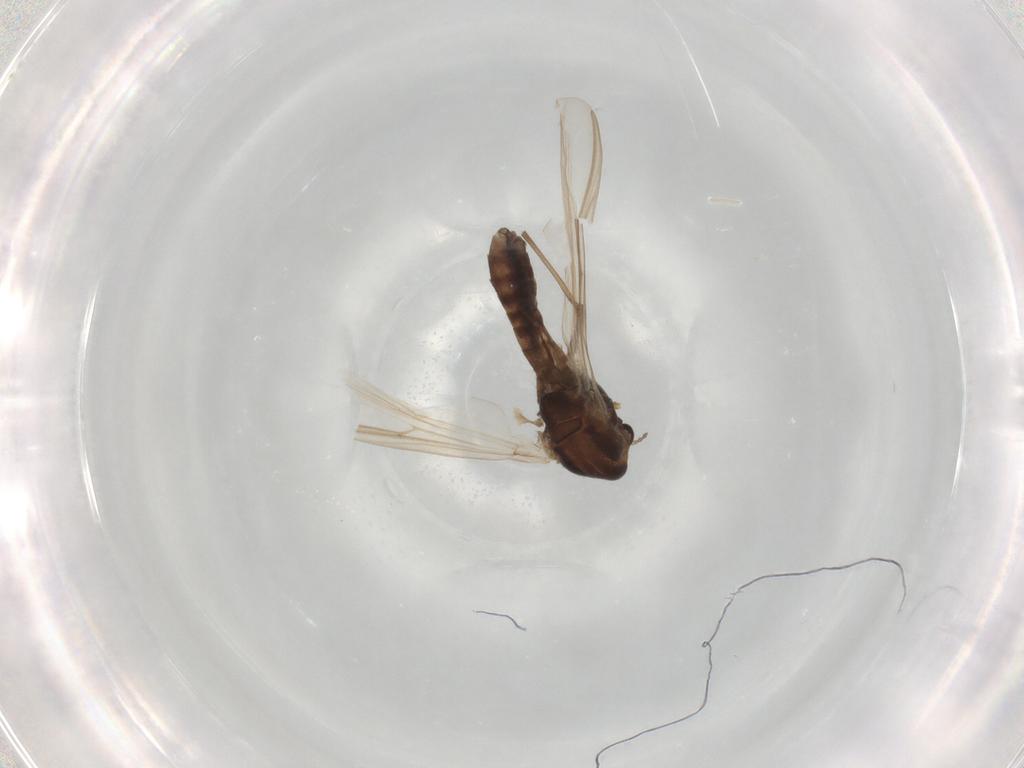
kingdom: Animalia
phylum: Arthropoda
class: Insecta
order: Diptera
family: Chironomidae
